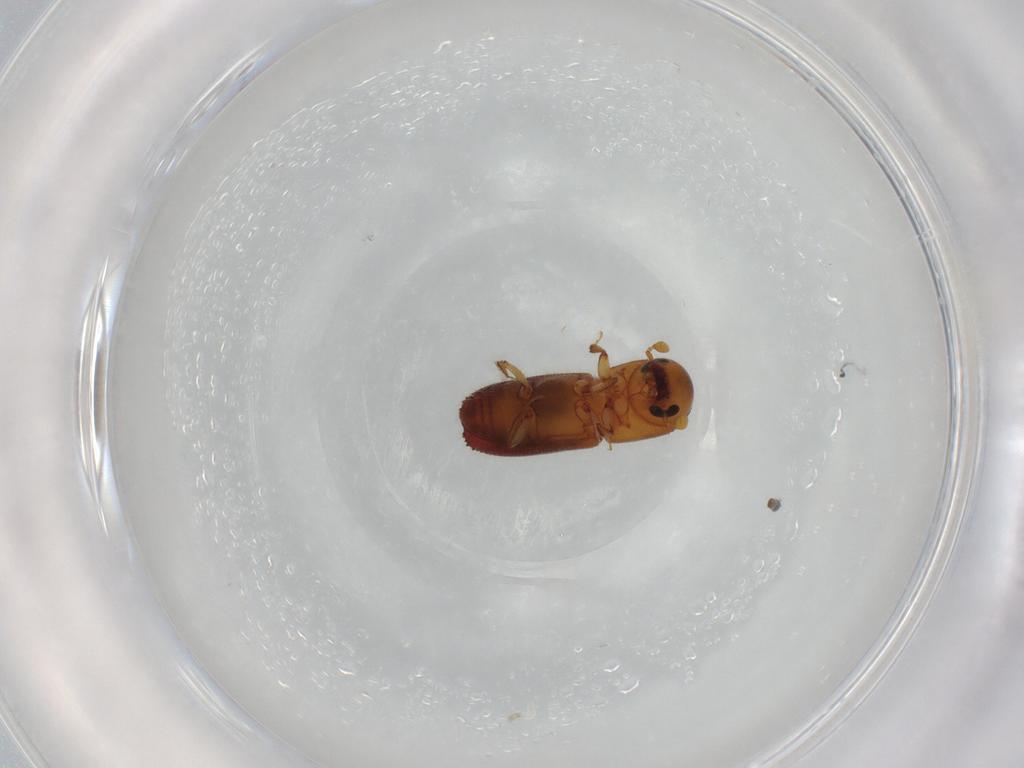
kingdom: Animalia
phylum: Arthropoda
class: Insecta
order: Coleoptera
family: Curculionidae
